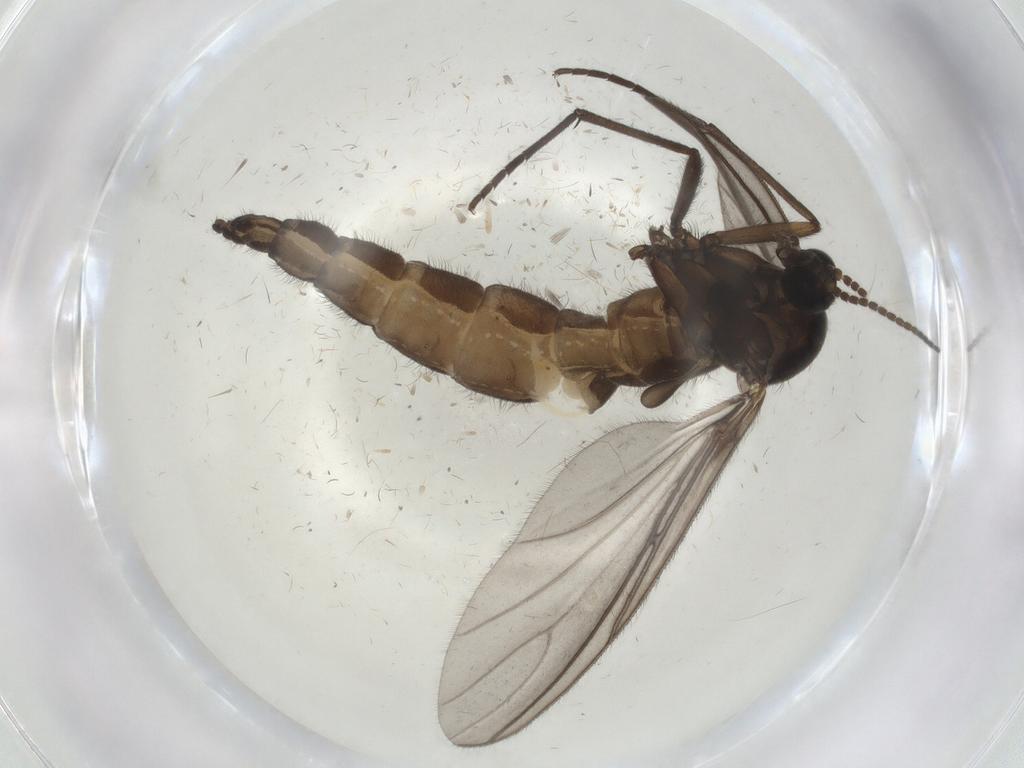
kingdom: Animalia
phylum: Arthropoda
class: Insecta
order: Diptera
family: Sciaridae
